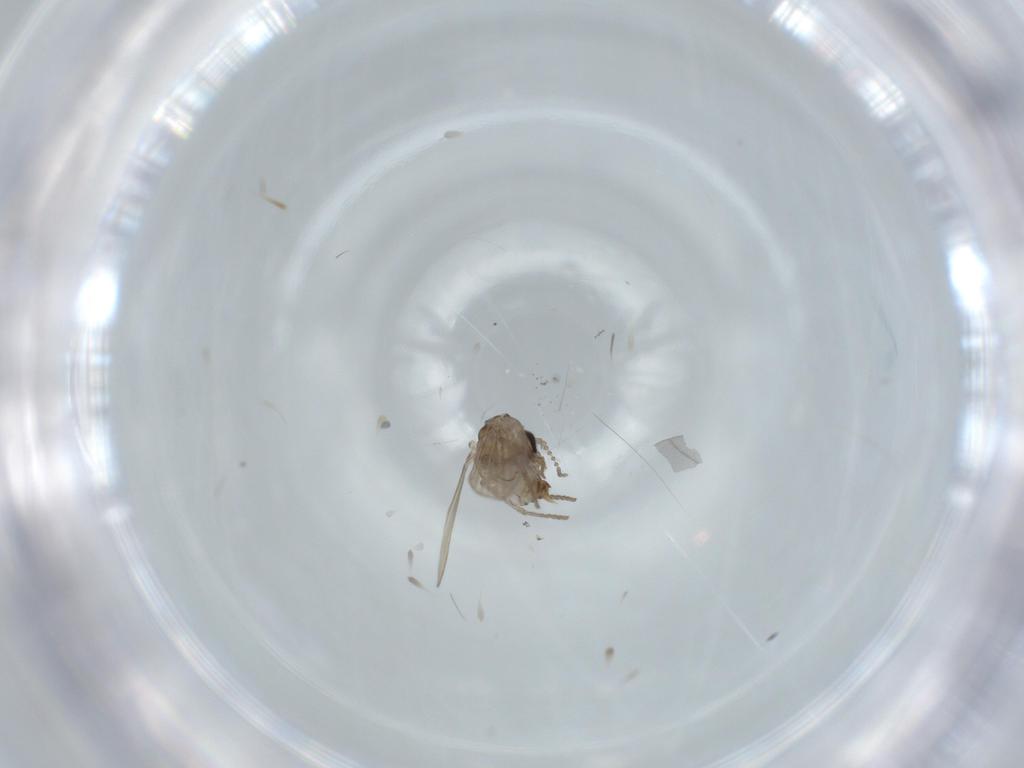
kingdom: Animalia
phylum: Arthropoda
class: Insecta
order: Diptera
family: Psychodidae
